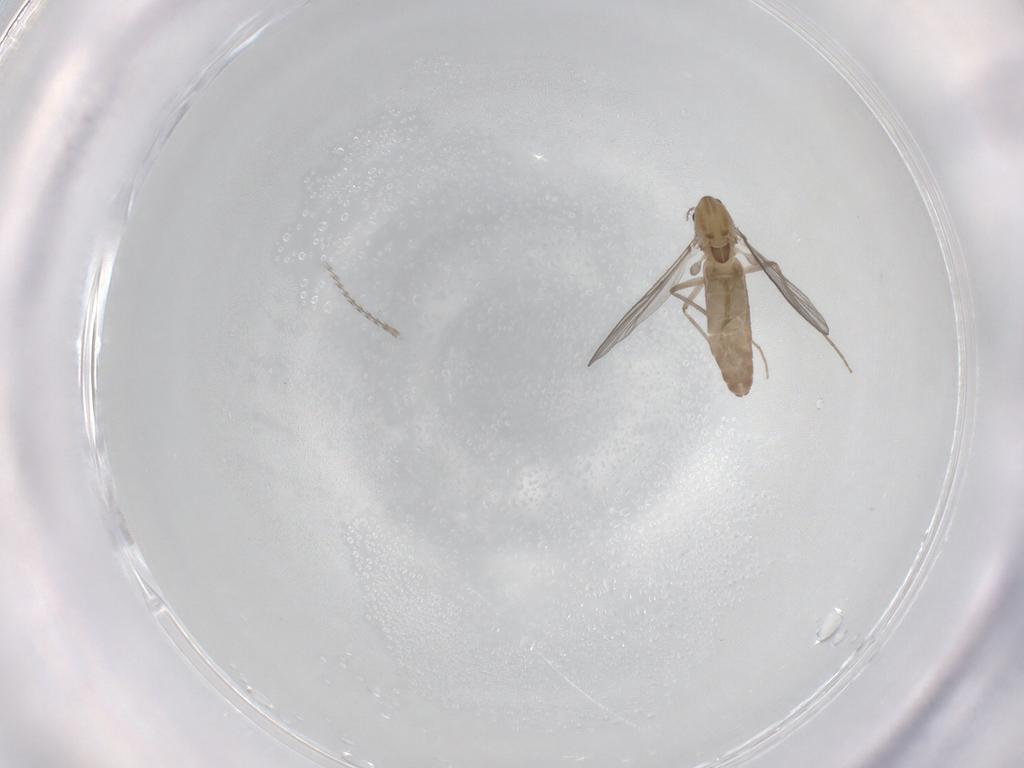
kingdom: Animalia
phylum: Arthropoda
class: Insecta
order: Diptera
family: Chironomidae
